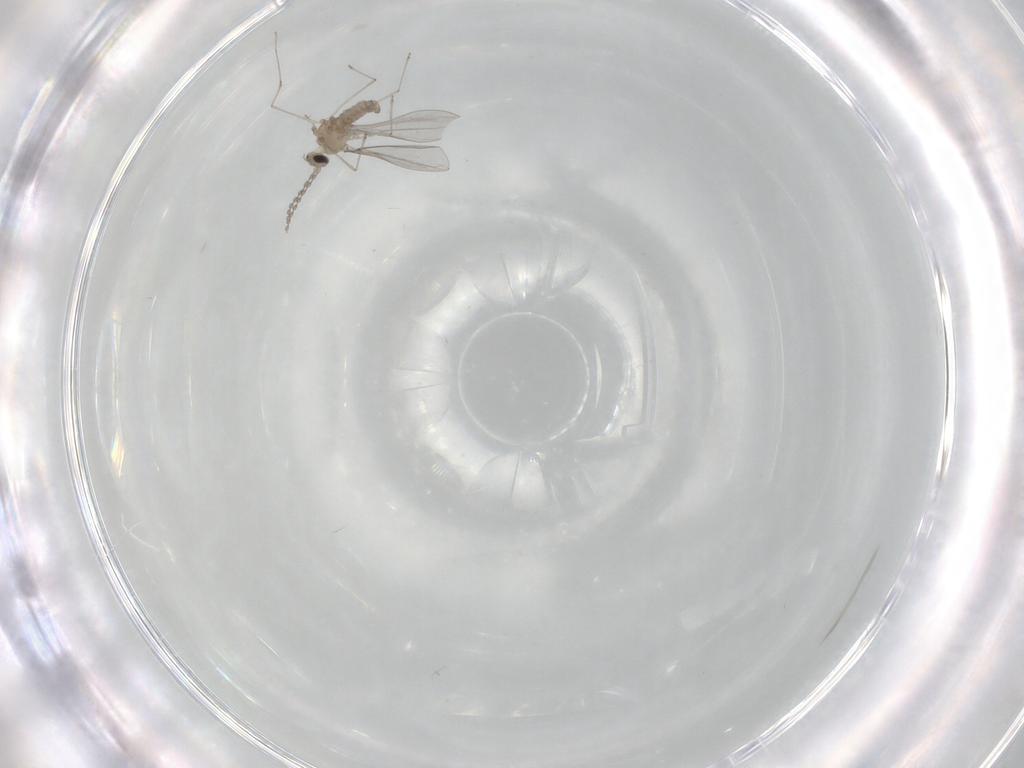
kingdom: Animalia
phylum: Arthropoda
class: Insecta
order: Diptera
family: Cecidomyiidae
